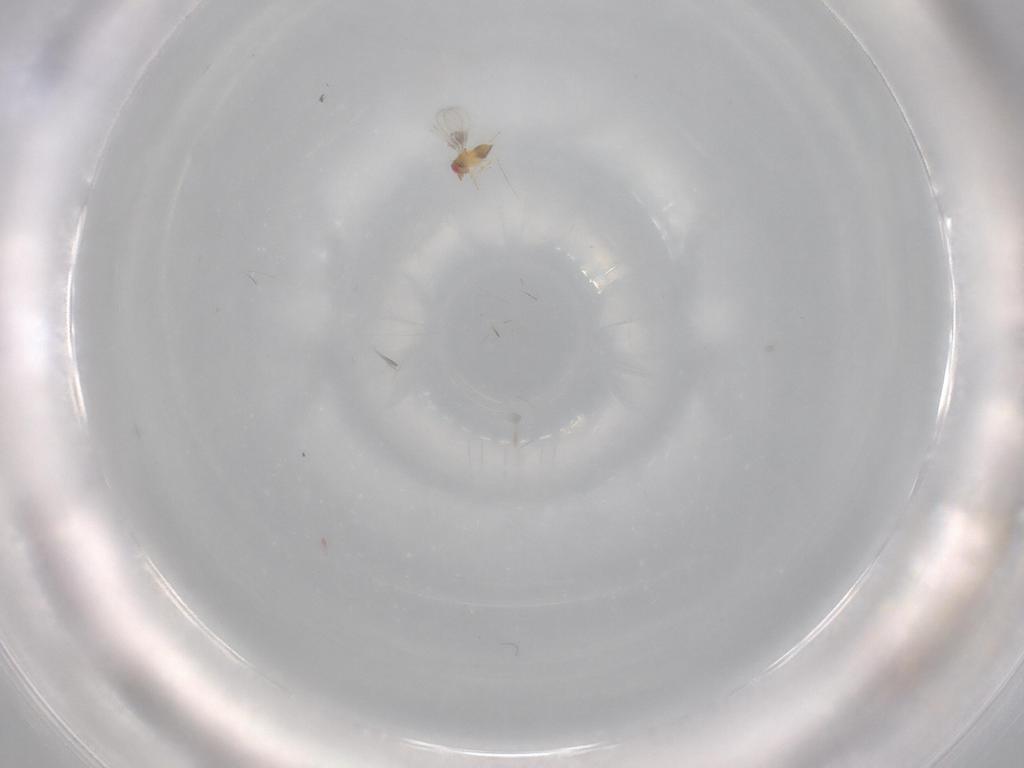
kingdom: Animalia
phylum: Arthropoda
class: Insecta
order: Hymenoptera
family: Trichogrammatidae
